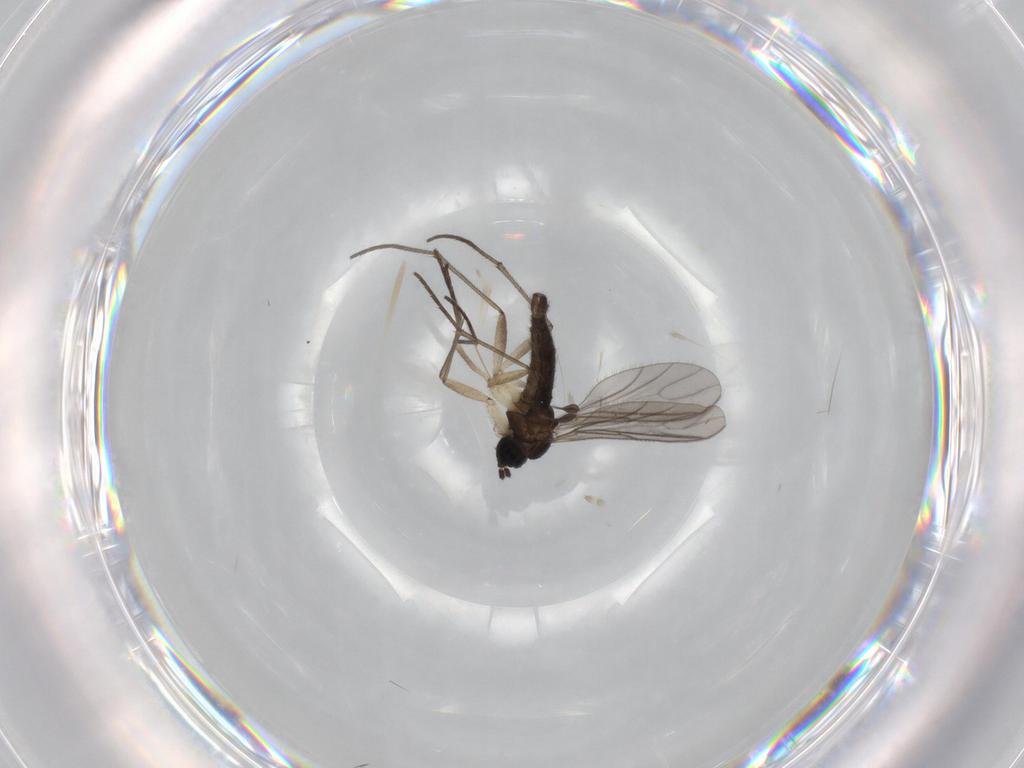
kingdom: Animalia
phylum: Arthropoda
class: Insecta
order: Diptera
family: Sciaridae
